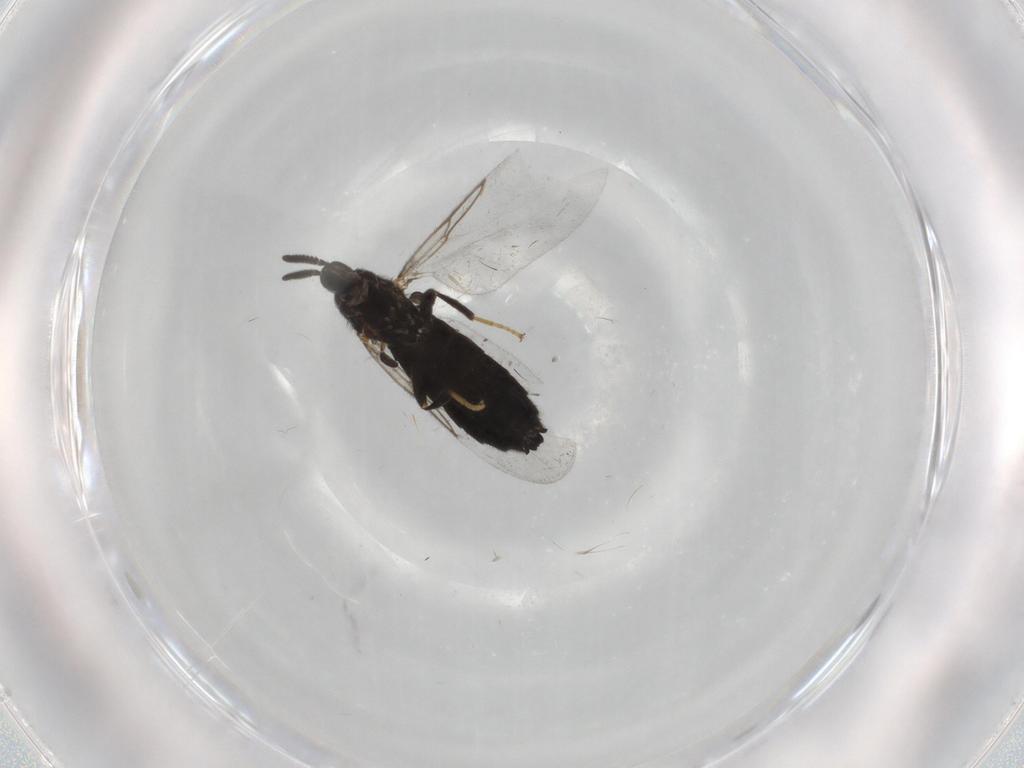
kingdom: Animalia
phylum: Arthropoda
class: Insecta
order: Diptera
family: Scatopsidae
